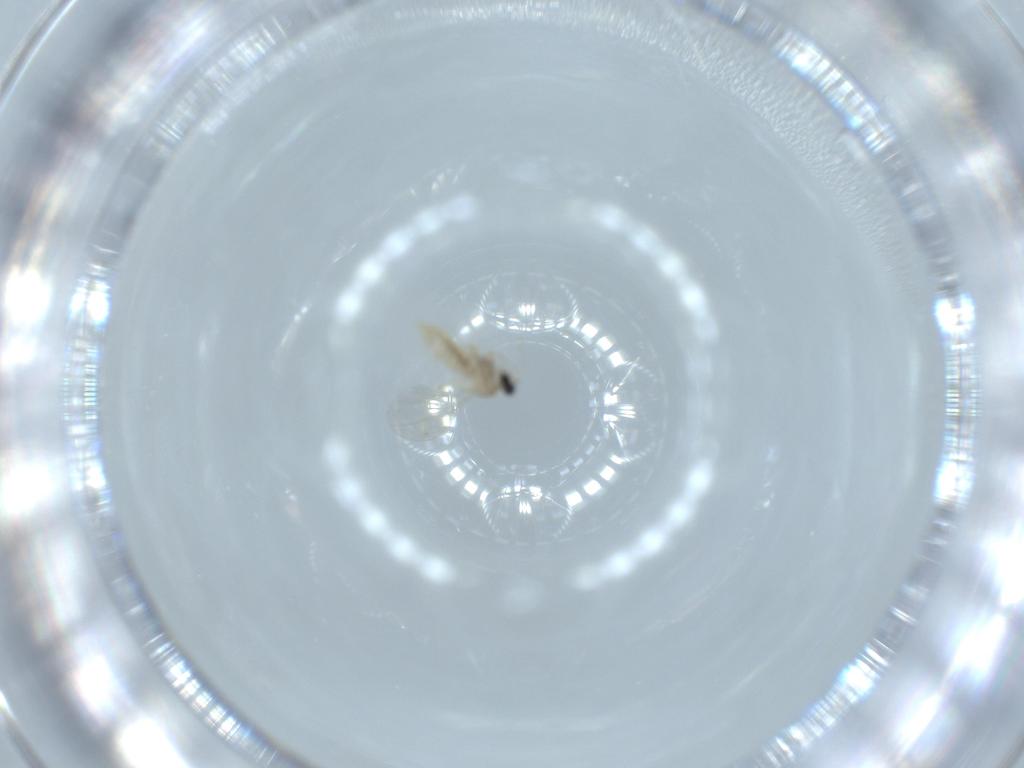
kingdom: Animalia
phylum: Arthropoda
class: Insecta
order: Diptera
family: Cecidomyiidae
